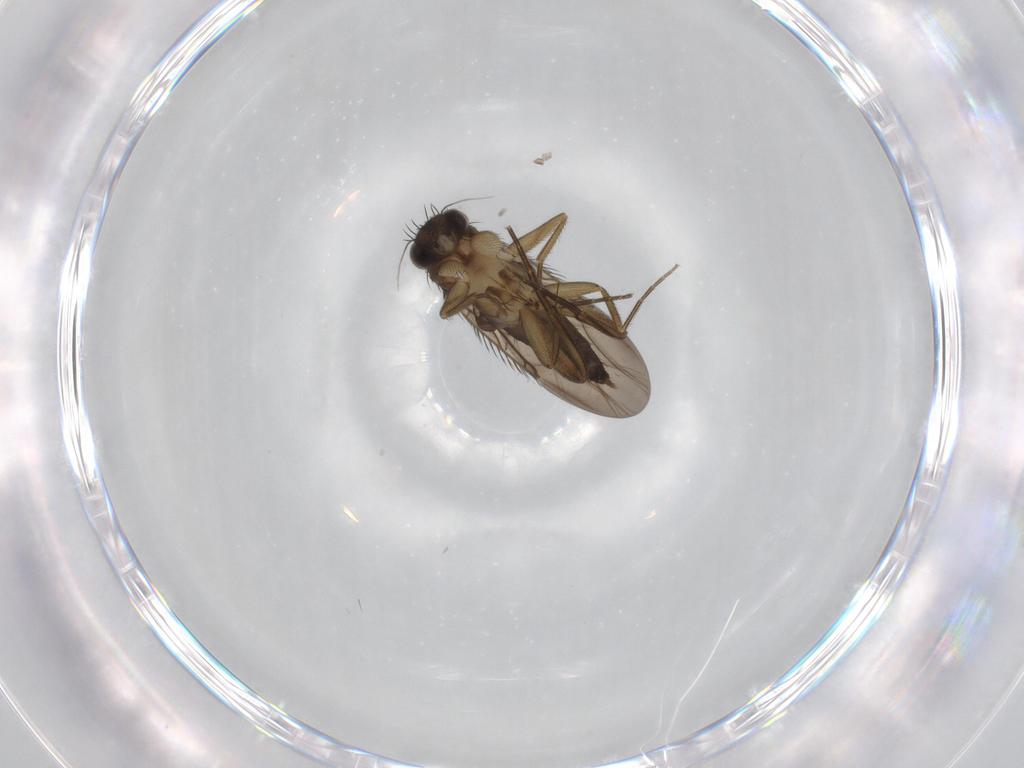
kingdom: Animalia
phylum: Arthropoda
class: Insecta
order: Diptera
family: Phoridae
